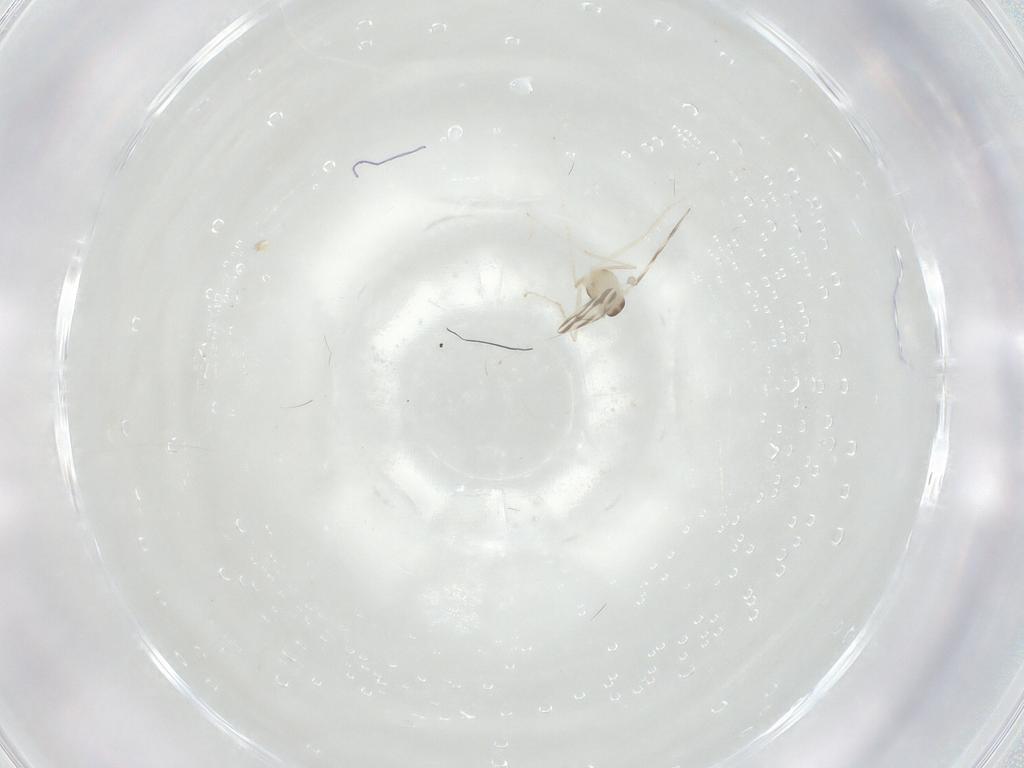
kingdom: Animalia
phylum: Arthropoda
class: Insecta
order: Diptera
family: Cecidomyiidae
